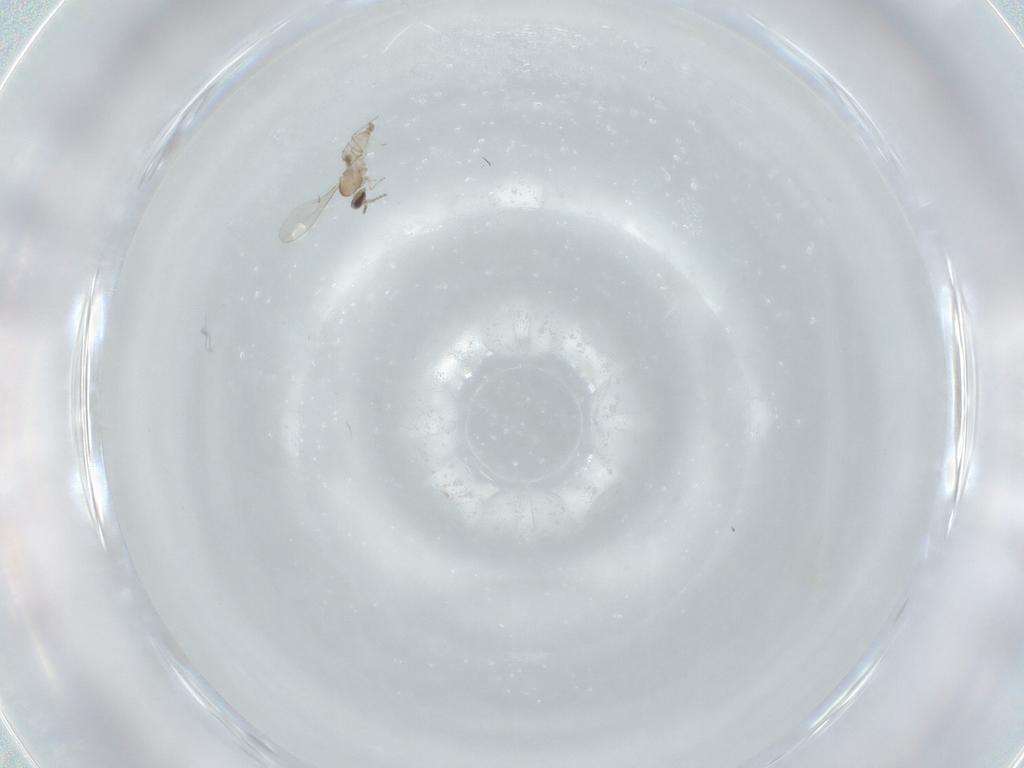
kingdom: Animalia
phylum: Arthropoda
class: Insecta
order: Diptera
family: Cecidomyiidae
